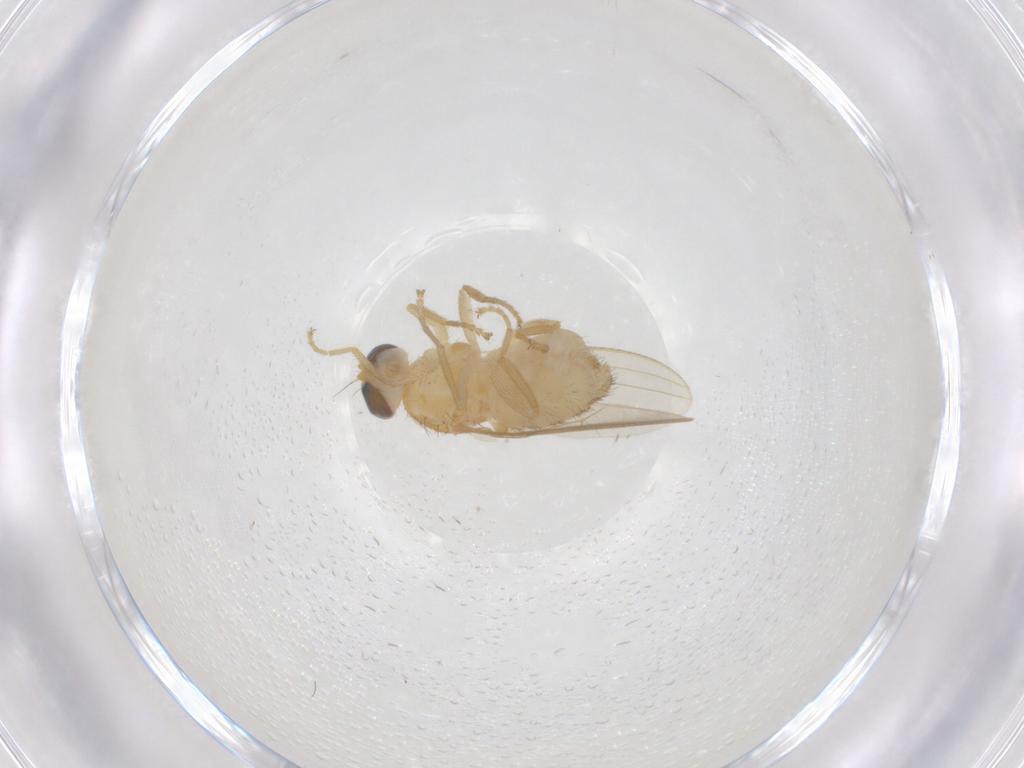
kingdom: Animalia
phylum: Arthropoda
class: Insecta
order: Diptera
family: Chyromyidae
